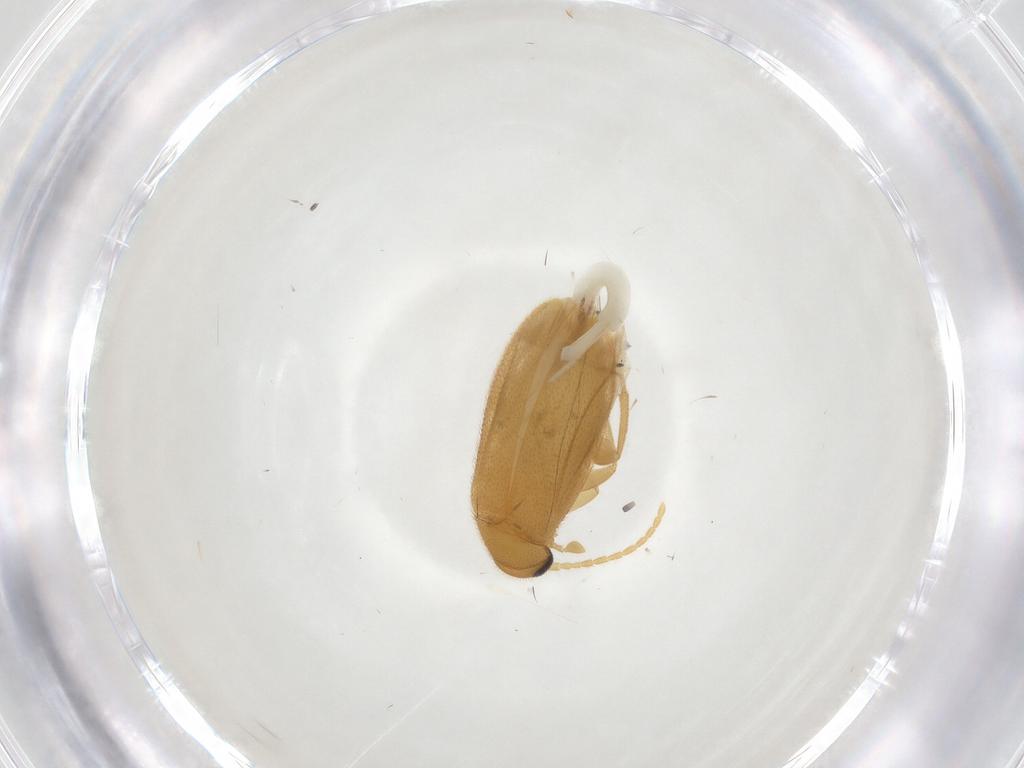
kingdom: Animalia
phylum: Arthropoda
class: Insecta
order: Coleoptera
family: Scraptiidae
